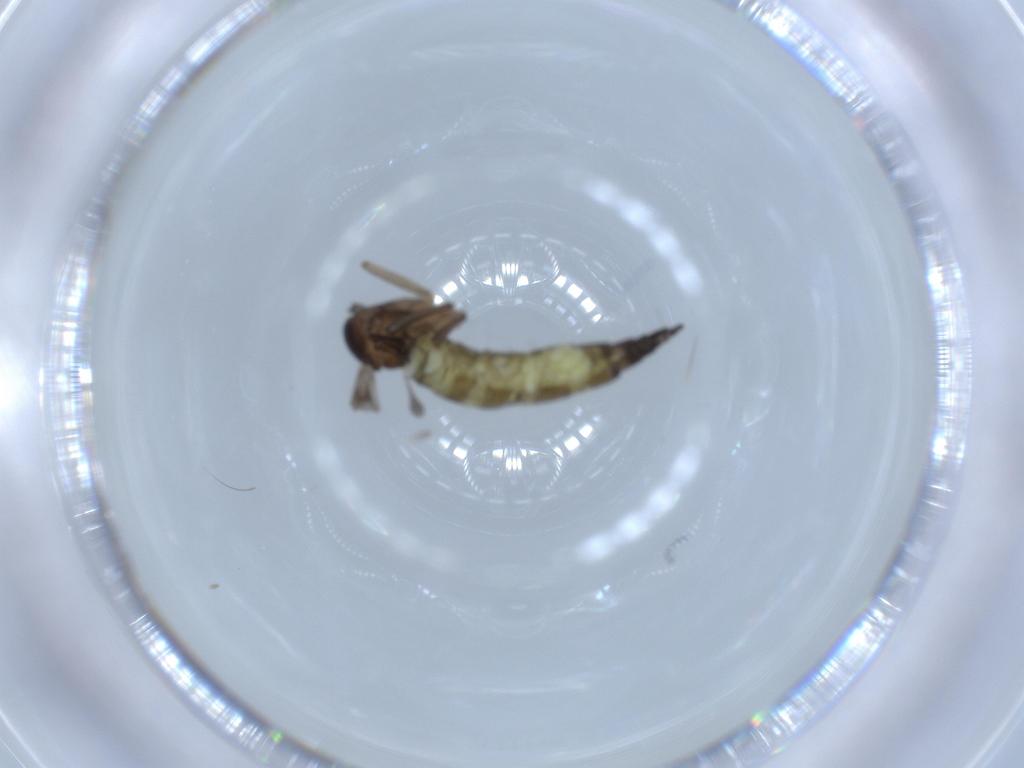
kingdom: Animalia
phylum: Arthropoda
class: Insecta
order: Diptera
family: Sciaridae
